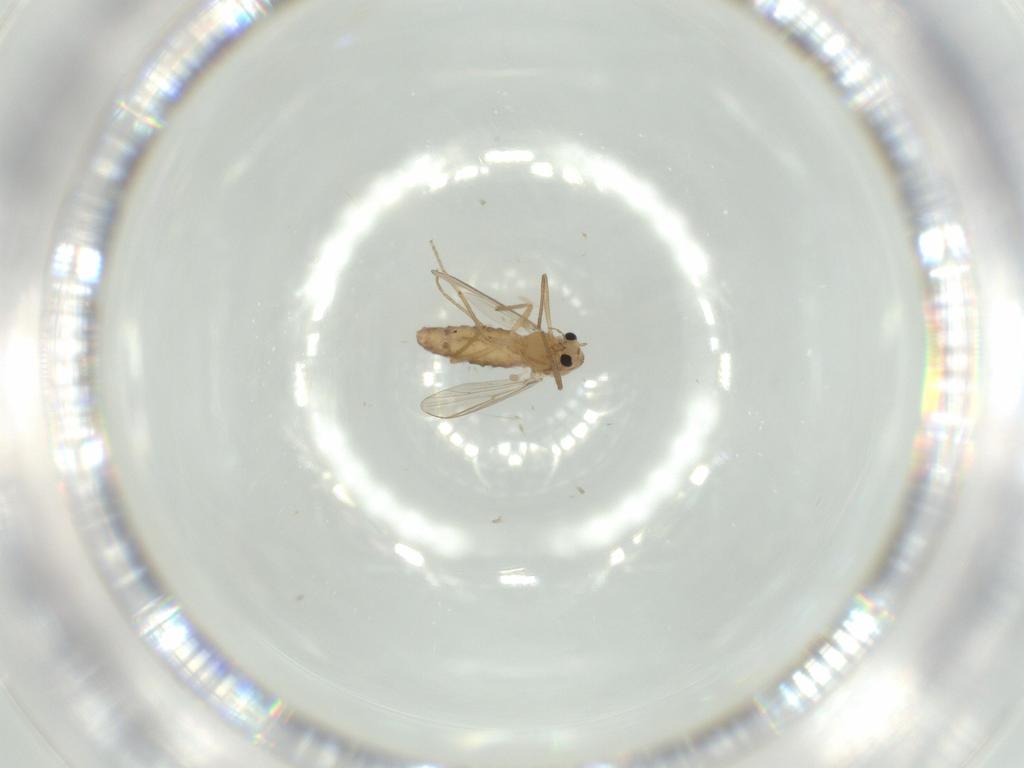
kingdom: Animalia
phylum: Arthropoda
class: Insecta
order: Diptera
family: Chironomidae
